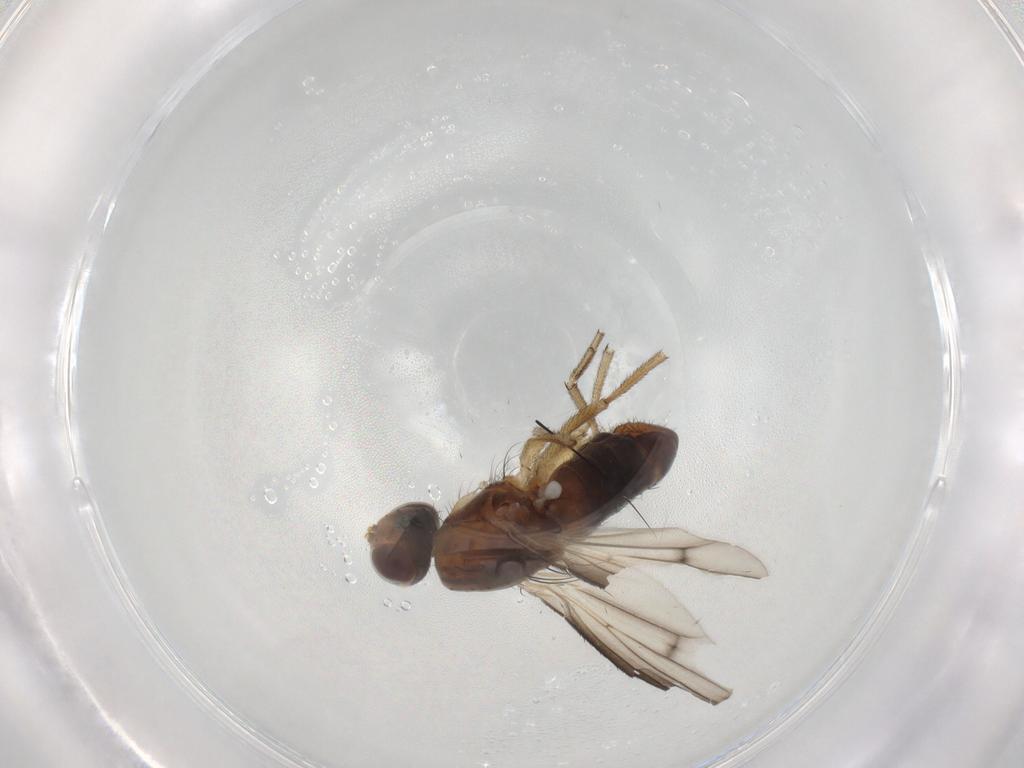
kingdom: Animalia
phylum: Arthropoda
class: Insecta
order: Diptera
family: Heleomyzidae
